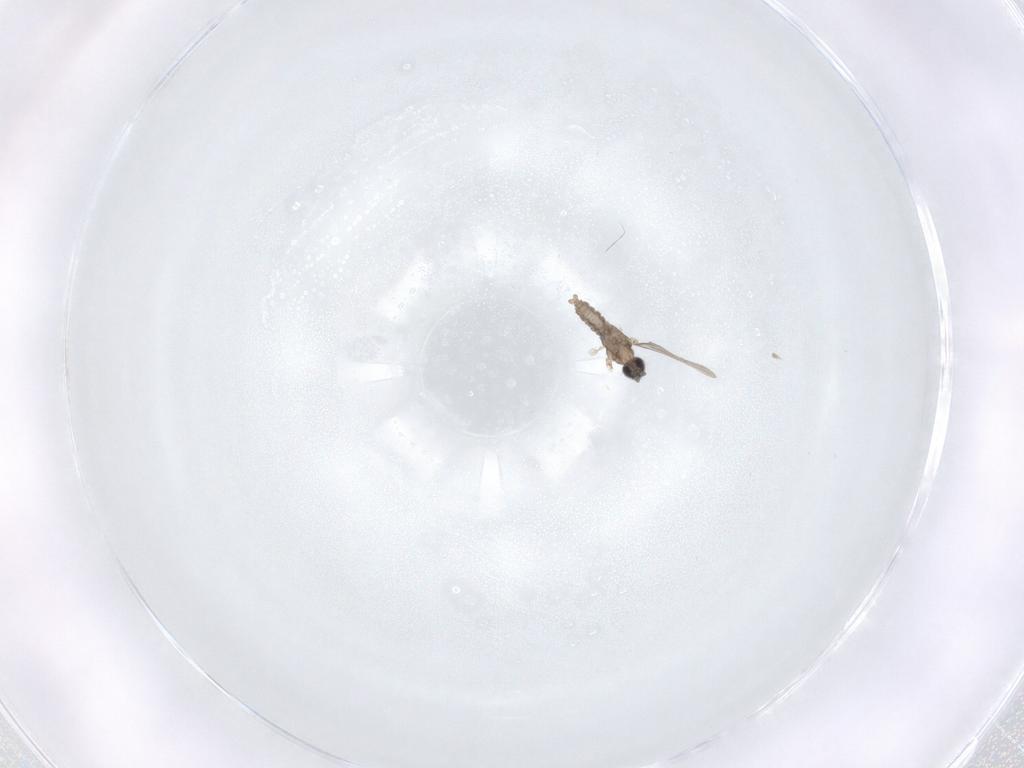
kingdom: Animalia
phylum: Arthropoda
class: Insecta
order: Diptera
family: Cecidomyiidae
